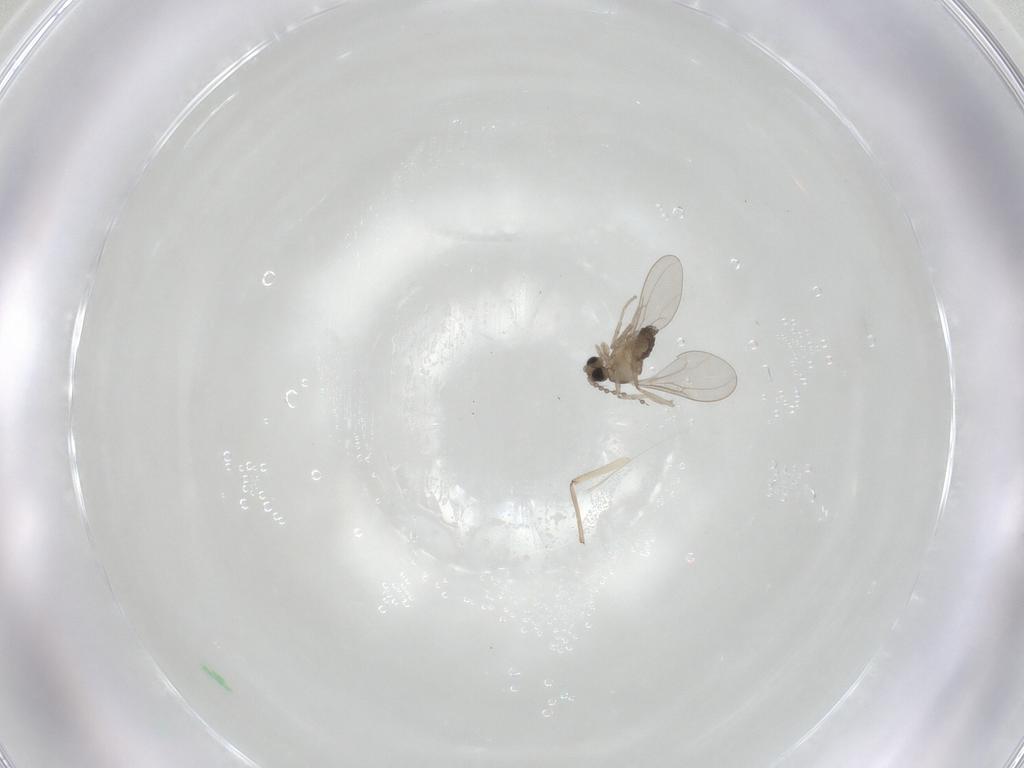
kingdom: Animalia
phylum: Arthropoda
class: Insecta
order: Diptera
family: Cecidomyiidae
